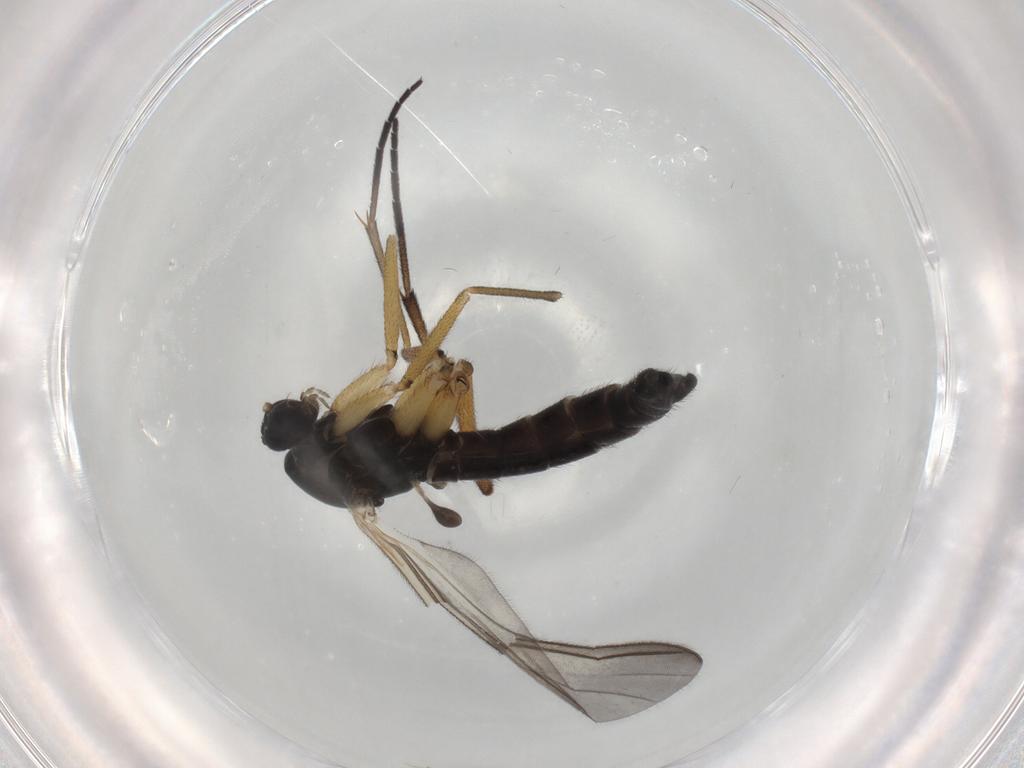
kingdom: Animalia
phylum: Arthropoda
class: Insecta
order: Diptera
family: Sciaridae
